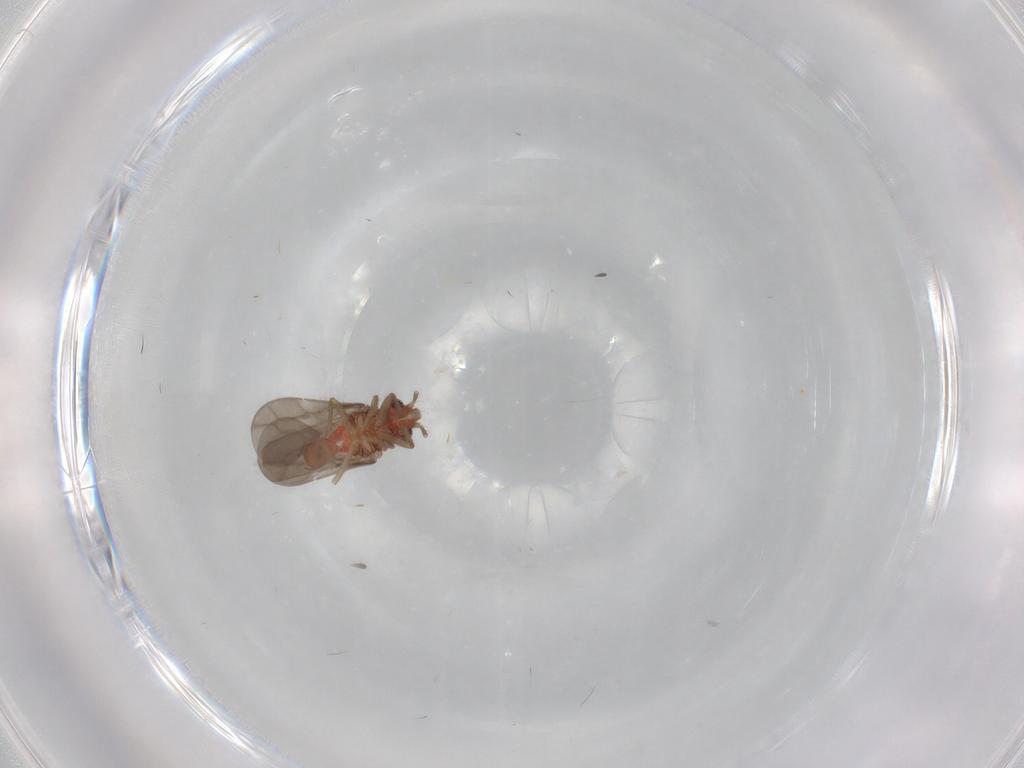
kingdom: Animalia
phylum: Arthropoda
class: Insecta
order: Hemiptera
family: Ceratocombidae
